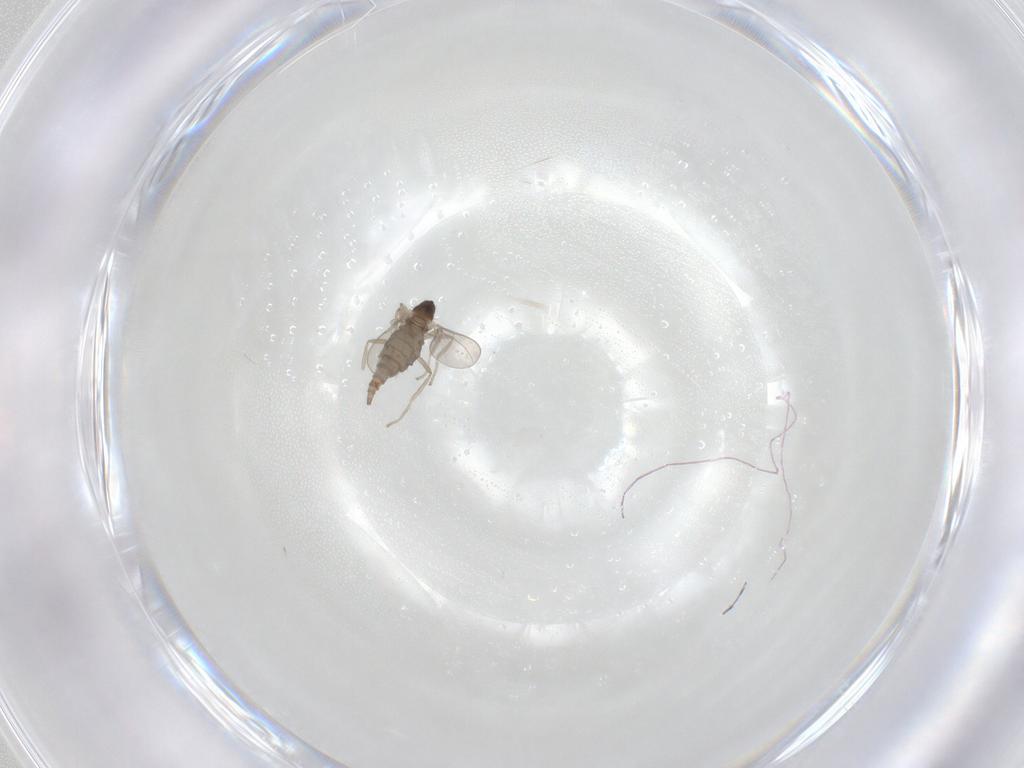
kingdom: Animalia
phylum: Arthropoda
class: Insecta
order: Diptera
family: Cecidomyiidae
